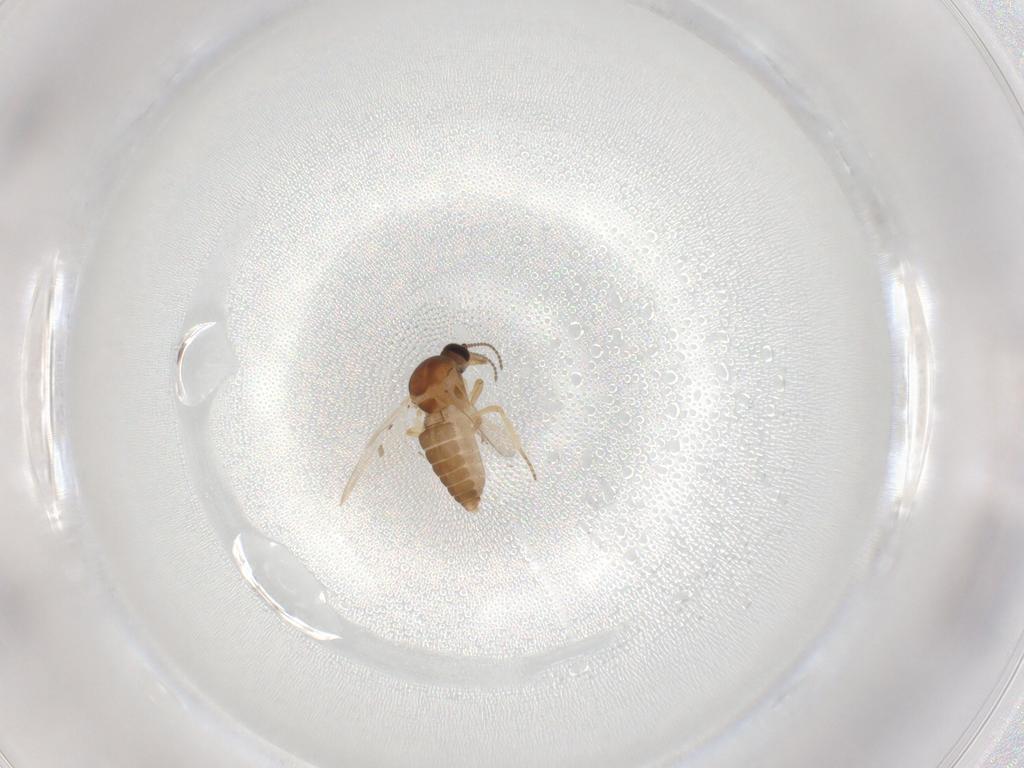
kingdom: Animalia
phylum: Arthropoda
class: Insecta
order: Diptera
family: Ceratopogonidae
